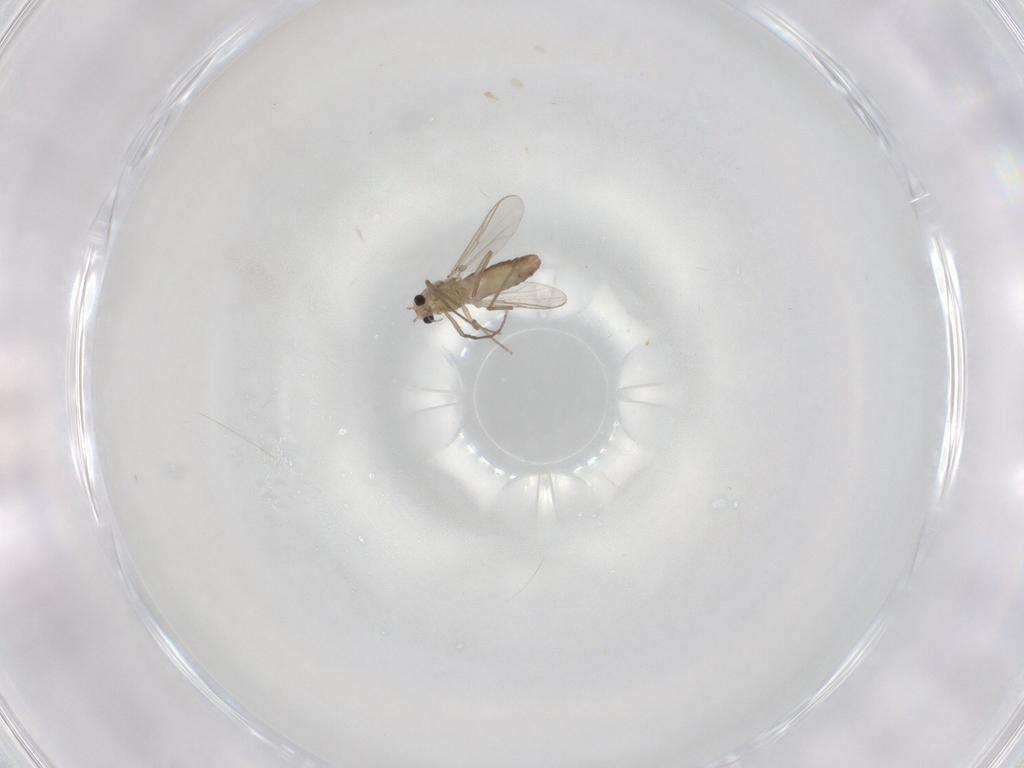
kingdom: Animalia
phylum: Arthropoda
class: Insecta
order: Diptera
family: Chironomidae
